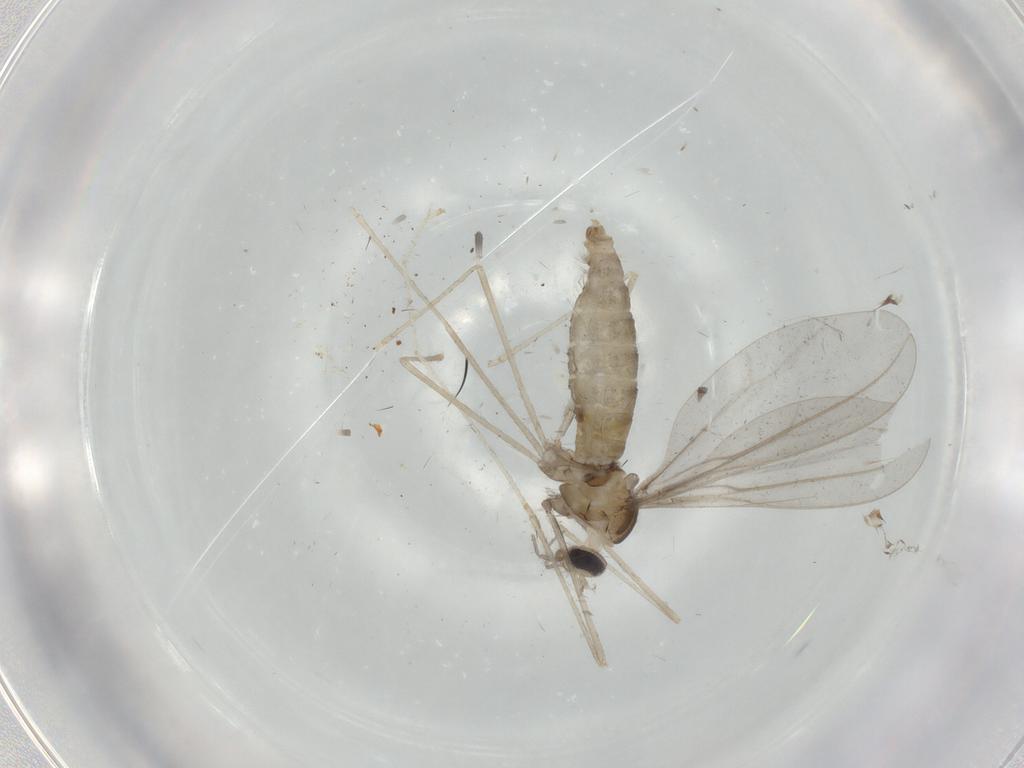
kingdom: Animalia
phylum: Arthropoda
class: Insecta
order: Diptera
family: Cecidomyiidae
